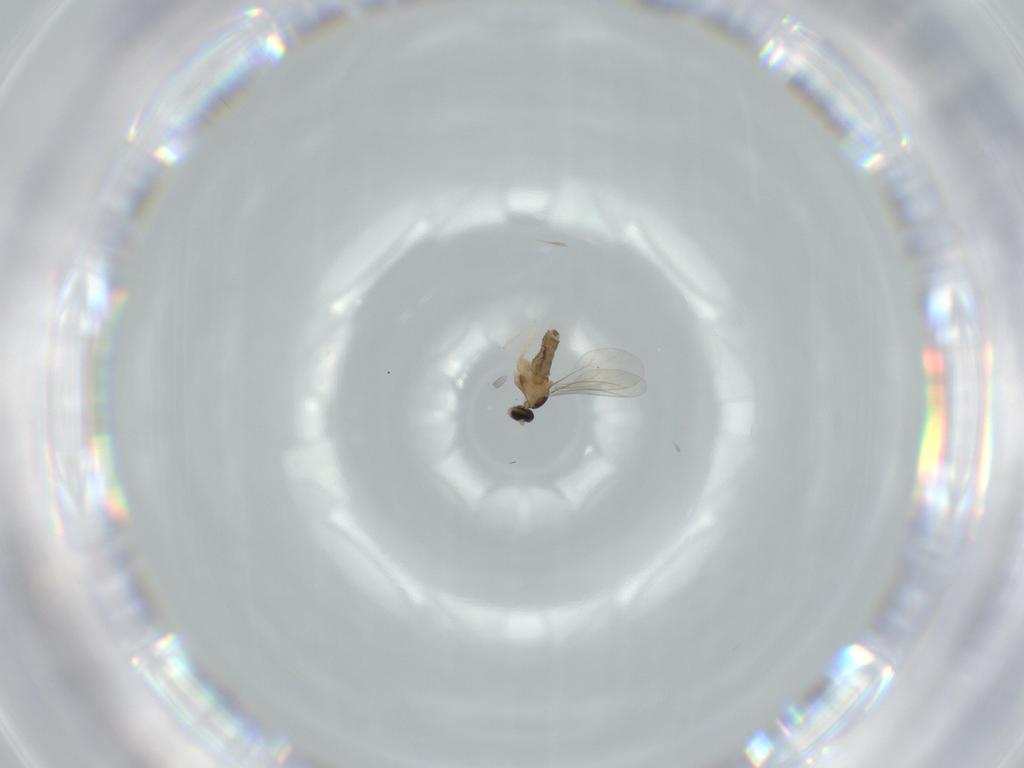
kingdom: Animalia
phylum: Arthropoda
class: Insecta
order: Diptera
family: Cecidomyiidae
